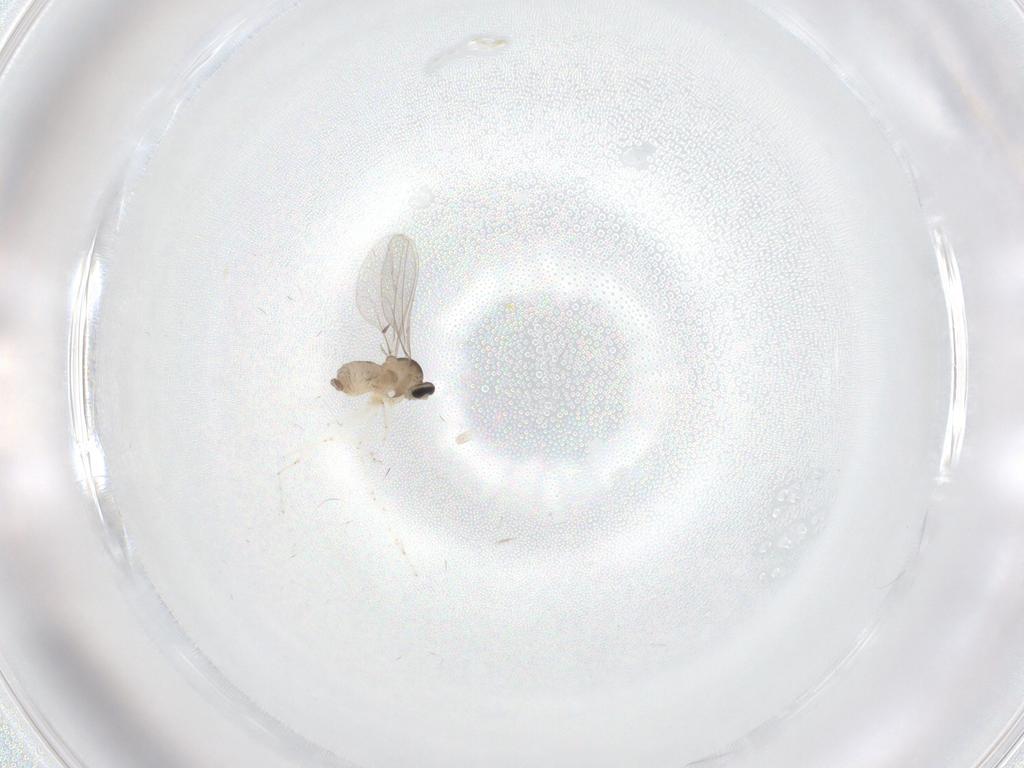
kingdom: Animalia
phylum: Arthropoda
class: Insecta
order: Diptera
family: Cecidomyiidae
